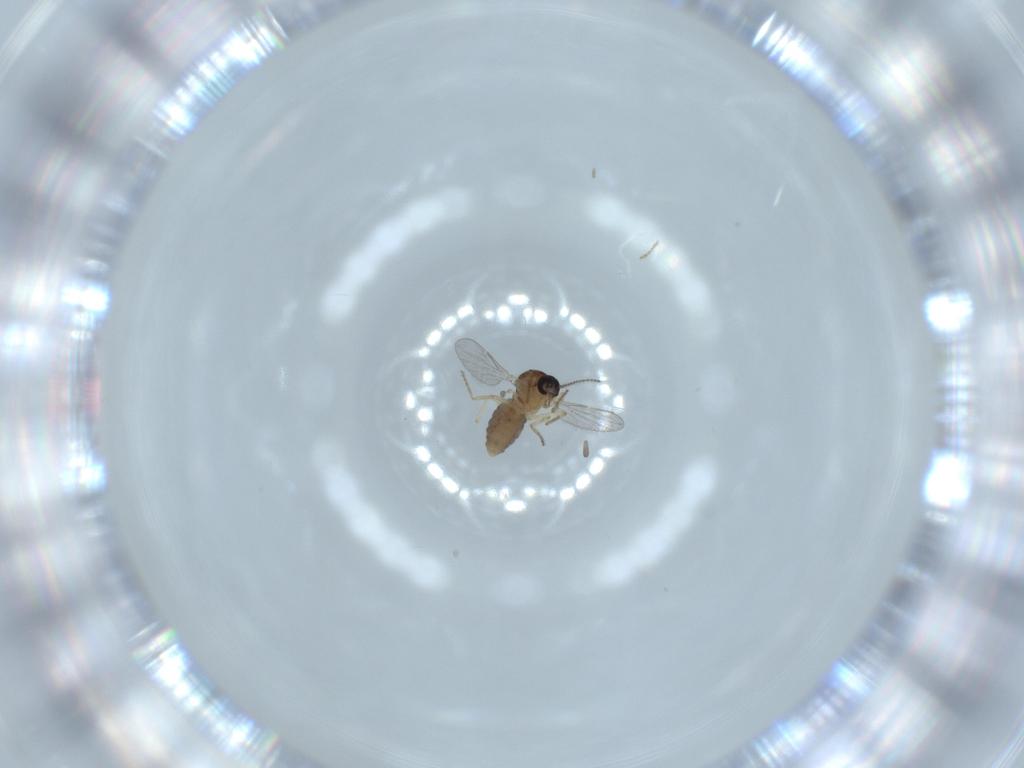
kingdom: Animalia
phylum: Arthropoda
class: Insecta
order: Diptera
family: Ceratopogonidae
